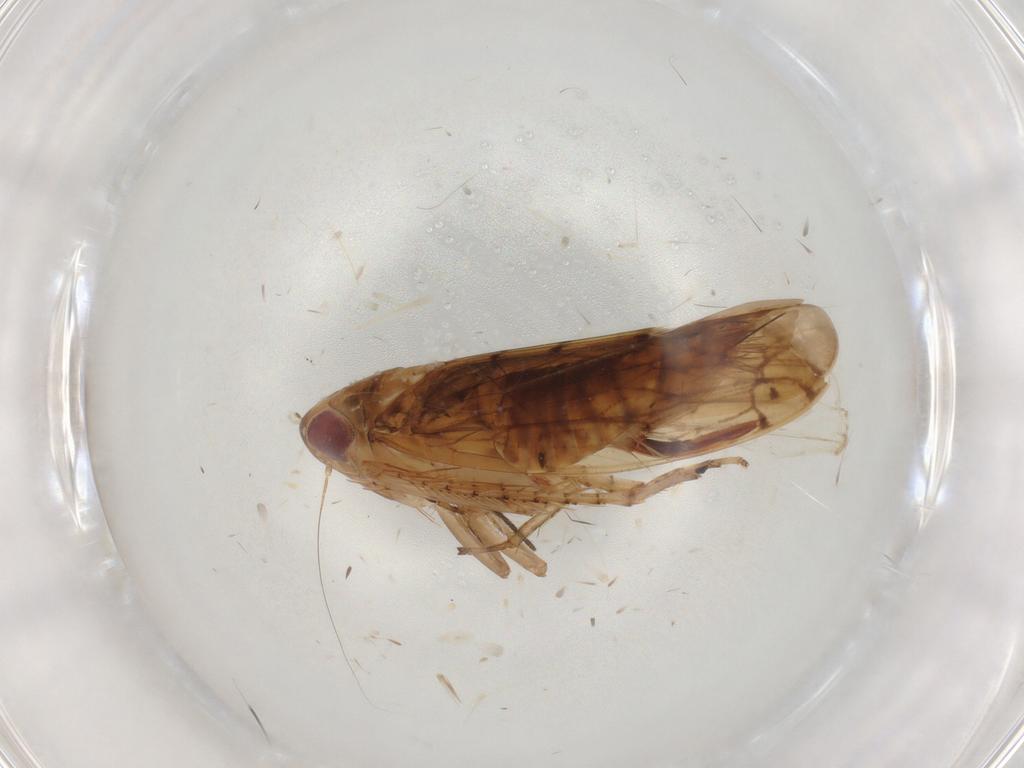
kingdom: Animalia
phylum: Arthropoda
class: Insecta
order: Hemiptera
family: Cicadellidae
